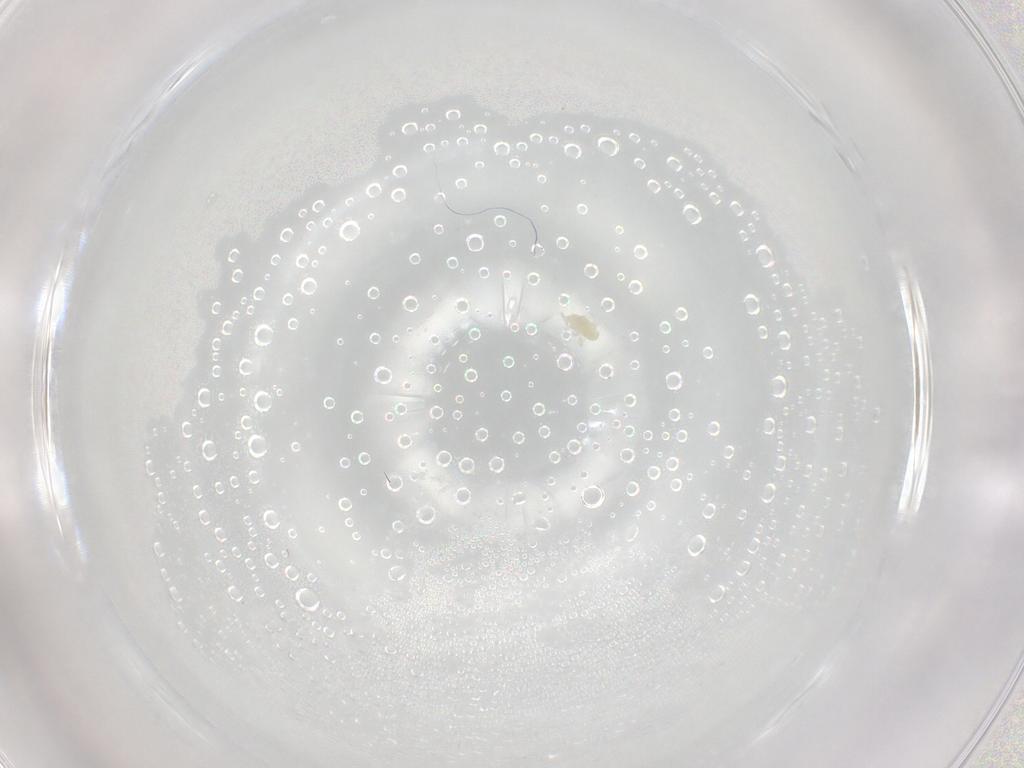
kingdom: Animalia
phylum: Arthropoda
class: Arachnida
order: Trombidiformes
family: Eupodidae
